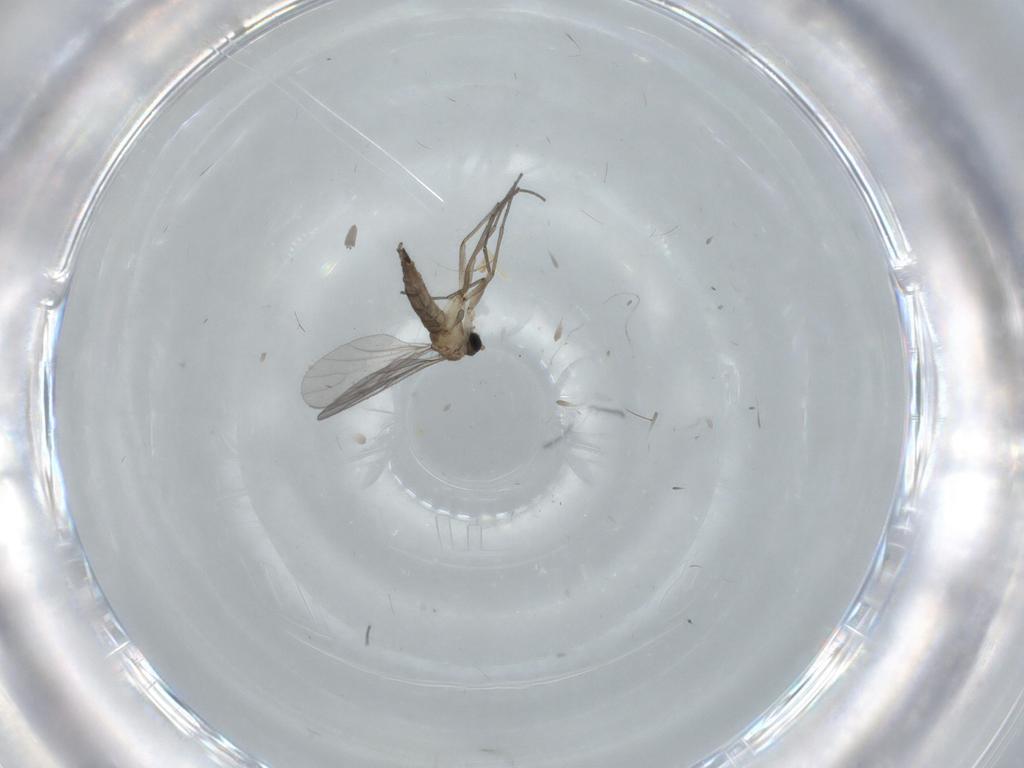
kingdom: Animalia
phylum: Arthropoda
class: Insecta
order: Diptera
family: Sciaridae
